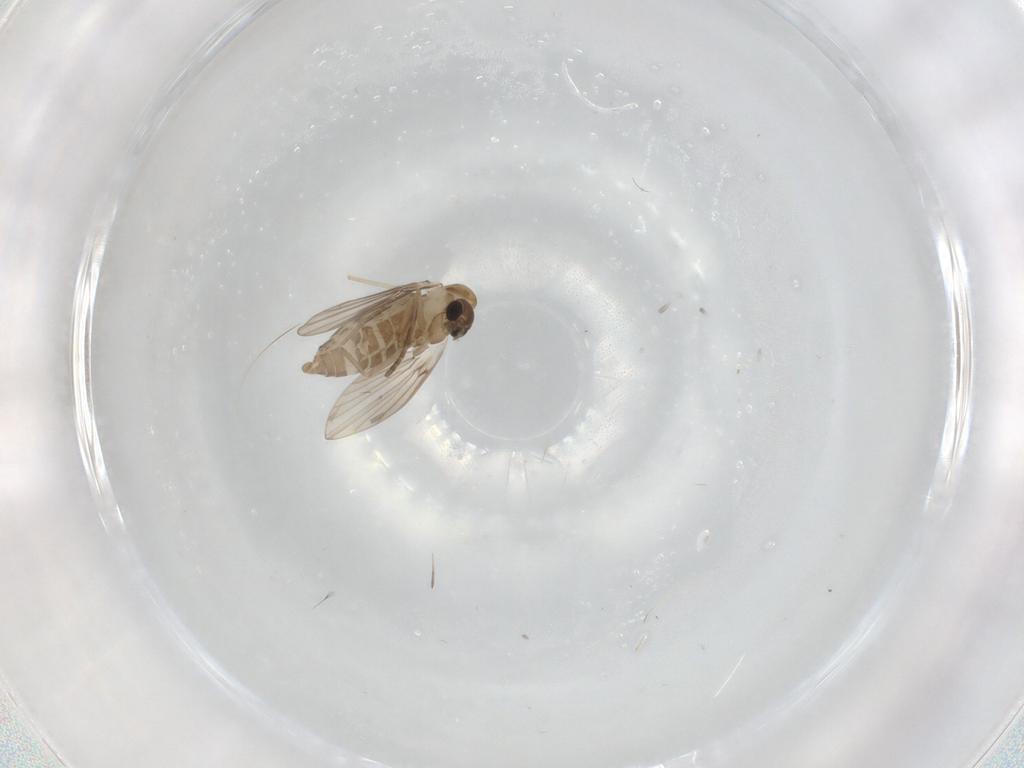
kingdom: Animalia
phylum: Arthropoda
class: Insecta
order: Diptera
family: Psychodidae
